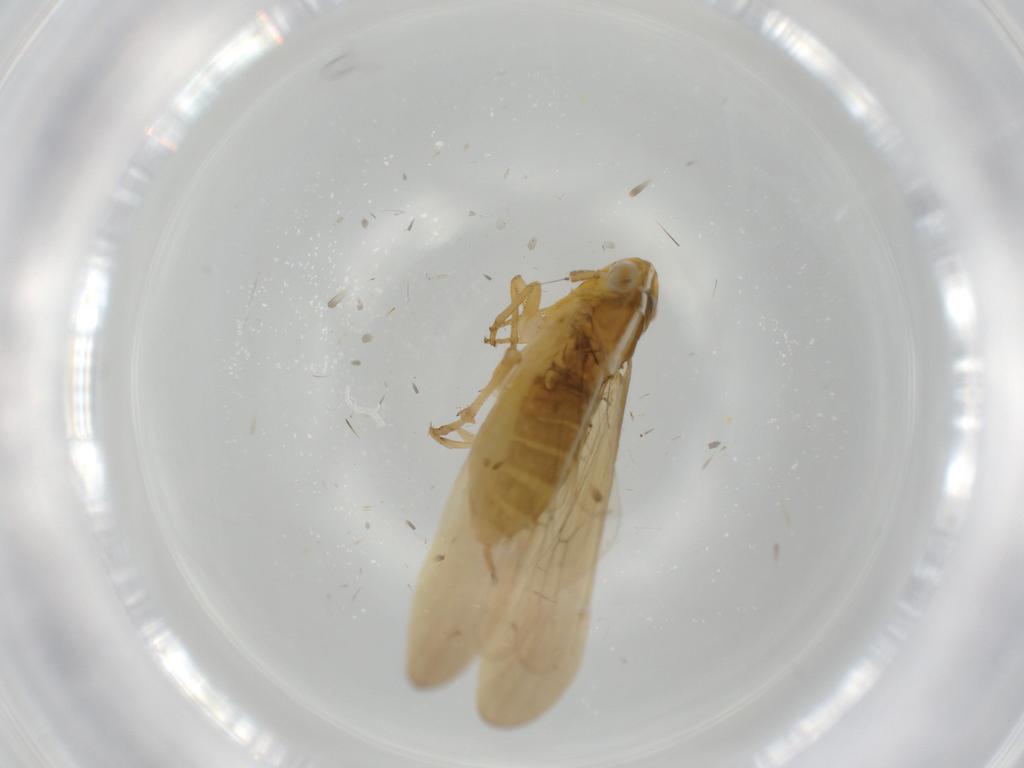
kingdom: Animalia
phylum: Arthropoda
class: Insecta
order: Hemiptera
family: Delphacidae
